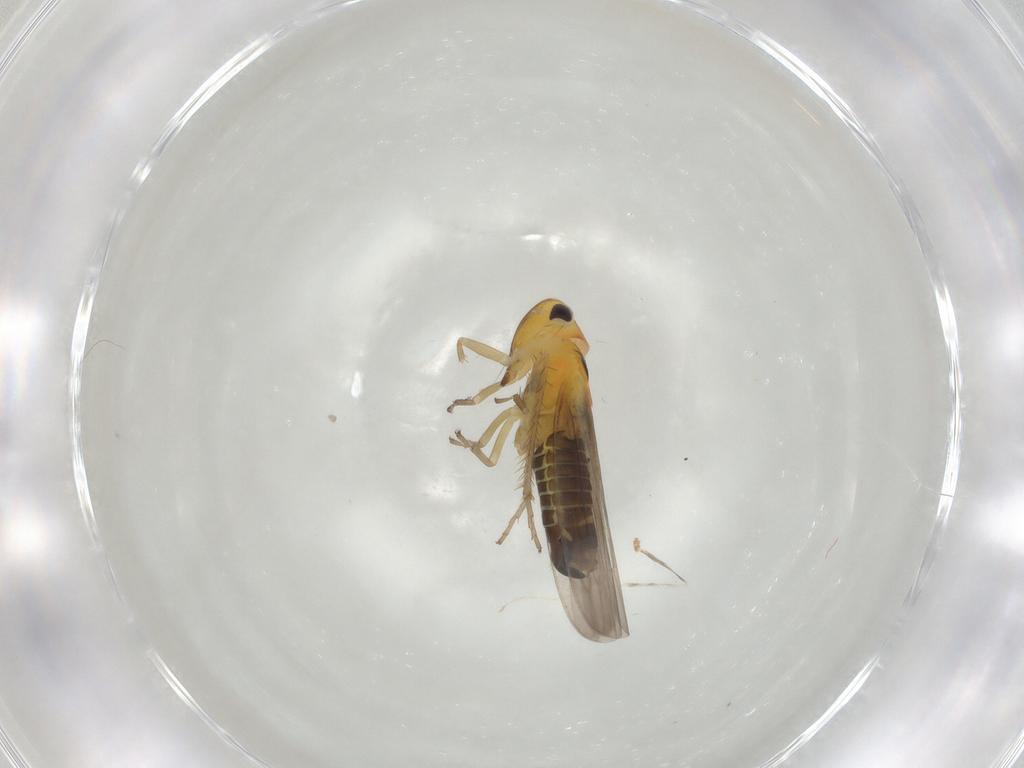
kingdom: Animalia
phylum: Arthropoda
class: Insecta
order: Hemiptera
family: Cicadellidae
